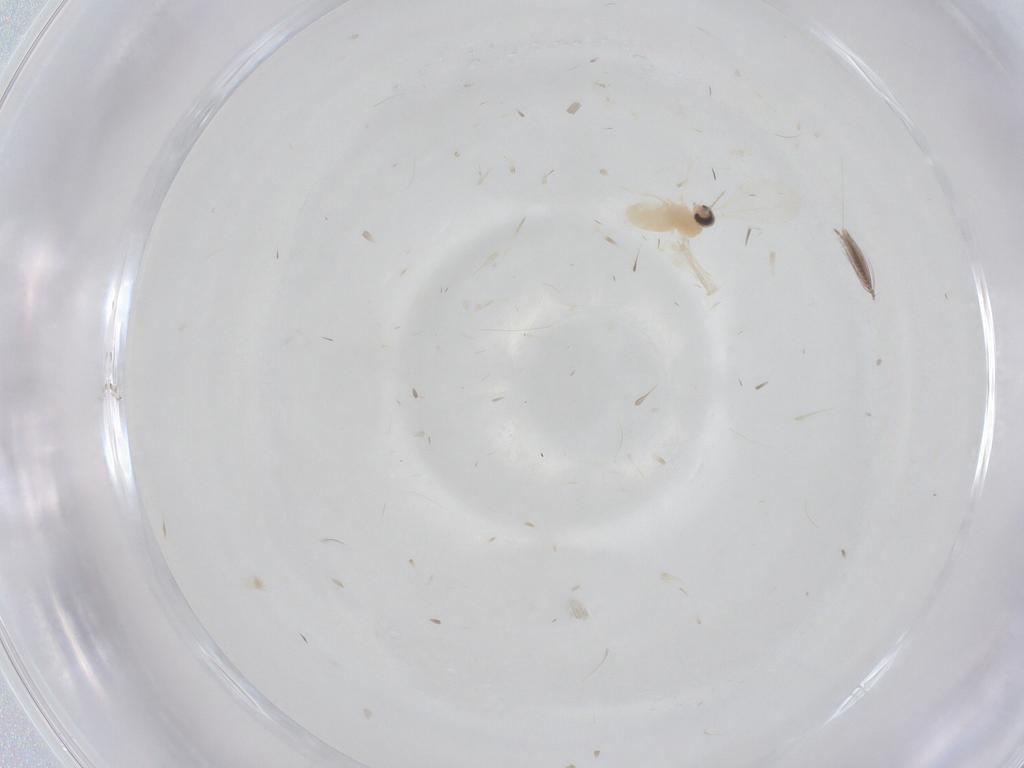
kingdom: Animalia
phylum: Arthropoda
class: Insecta
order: Diptera
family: Cecidomyiidae
